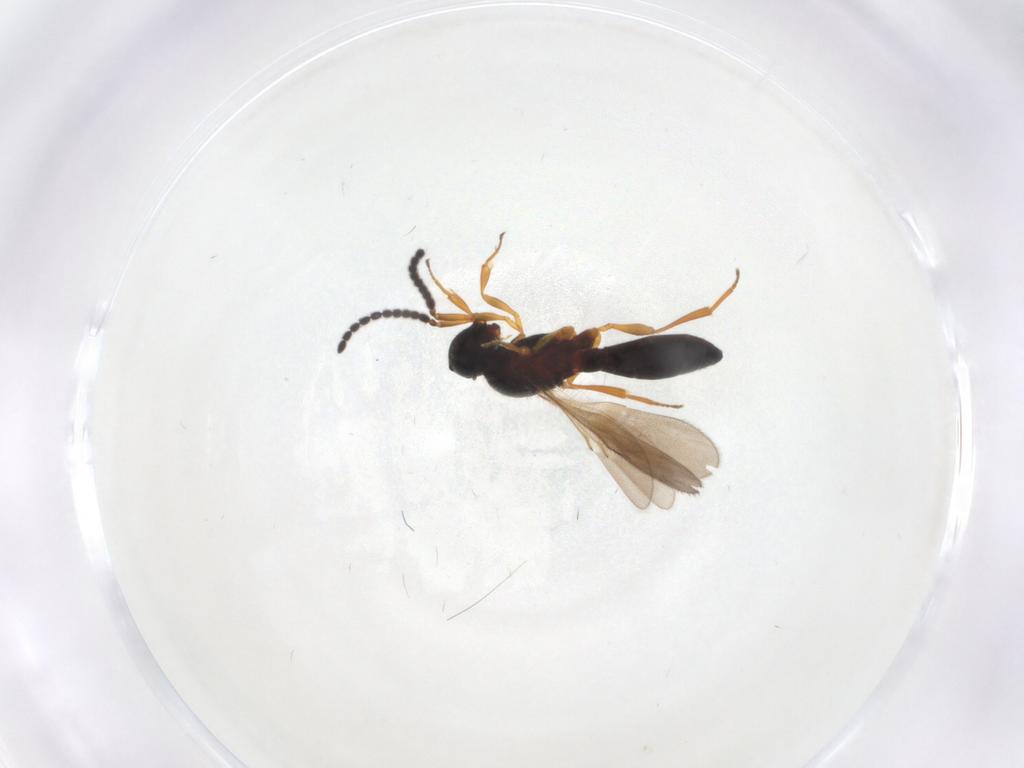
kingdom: Animalia
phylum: Arthropoda
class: Insecta
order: Hymenoptera
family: Scelionidae
